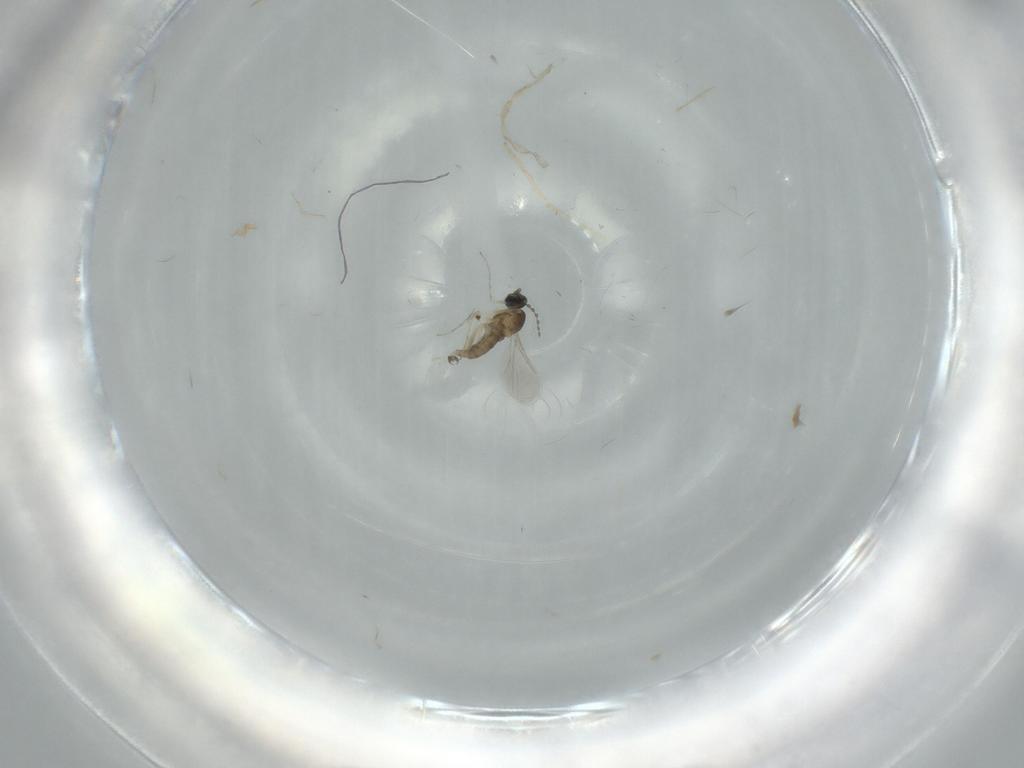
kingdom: Animalia
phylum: Arthropoda
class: Insecta
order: Diptera
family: Cecidomyiidae
